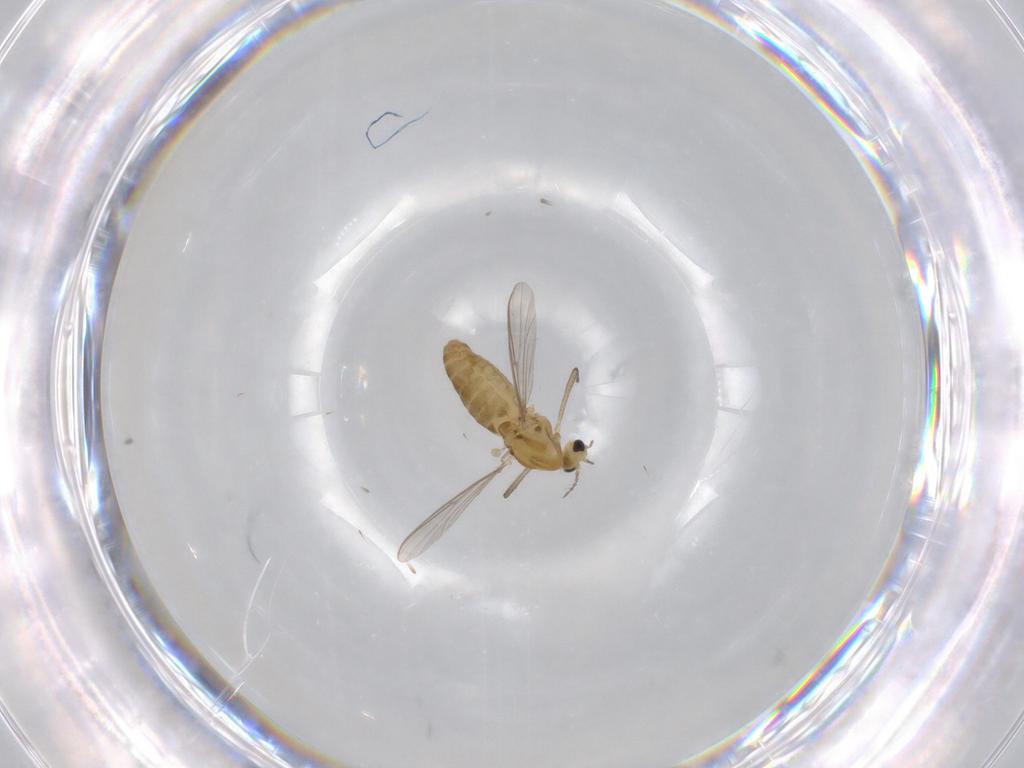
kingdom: Animalia
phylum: Arthropoda
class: Insecta
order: Diptera
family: Chironomidae
